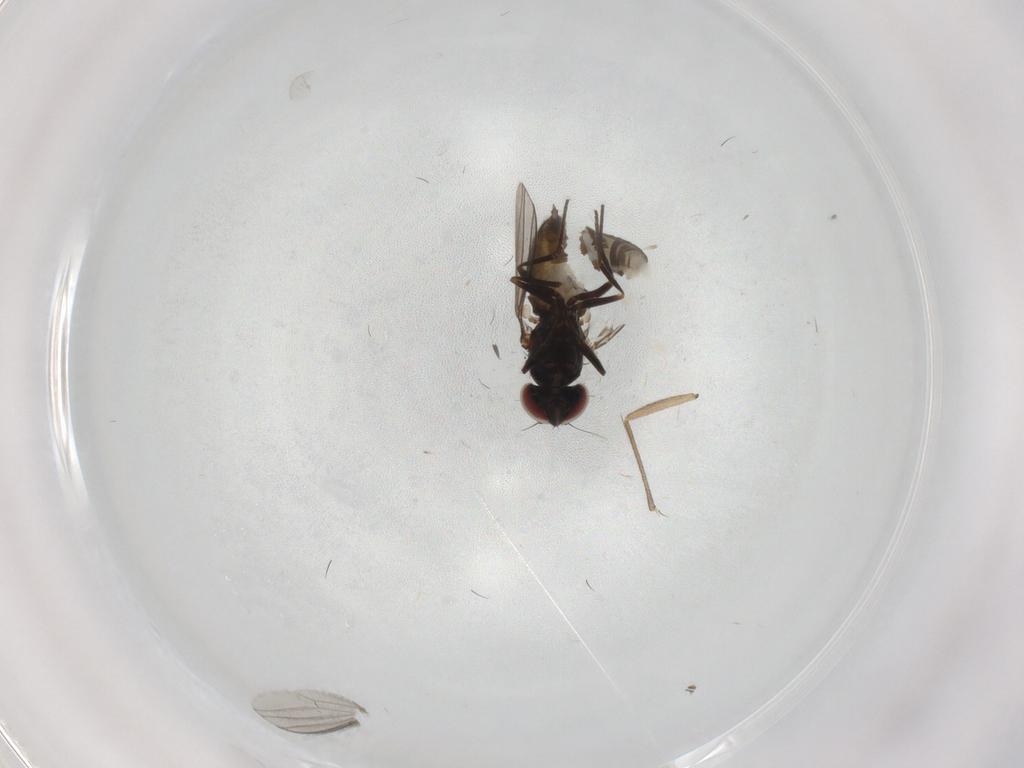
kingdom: Animalia
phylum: Arthropoda
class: Insecta
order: Diptera
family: Dolichopodidae
